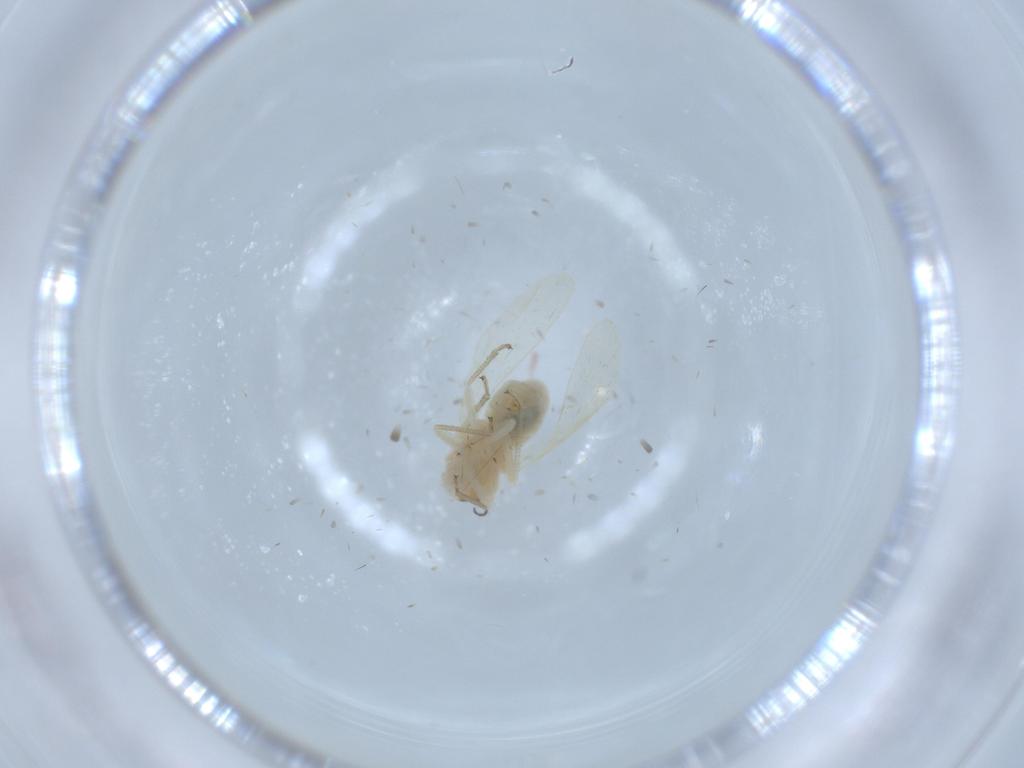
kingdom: Animalia
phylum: Arthropoda
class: Insecta
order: Psocodea
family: Caeciliusidae
